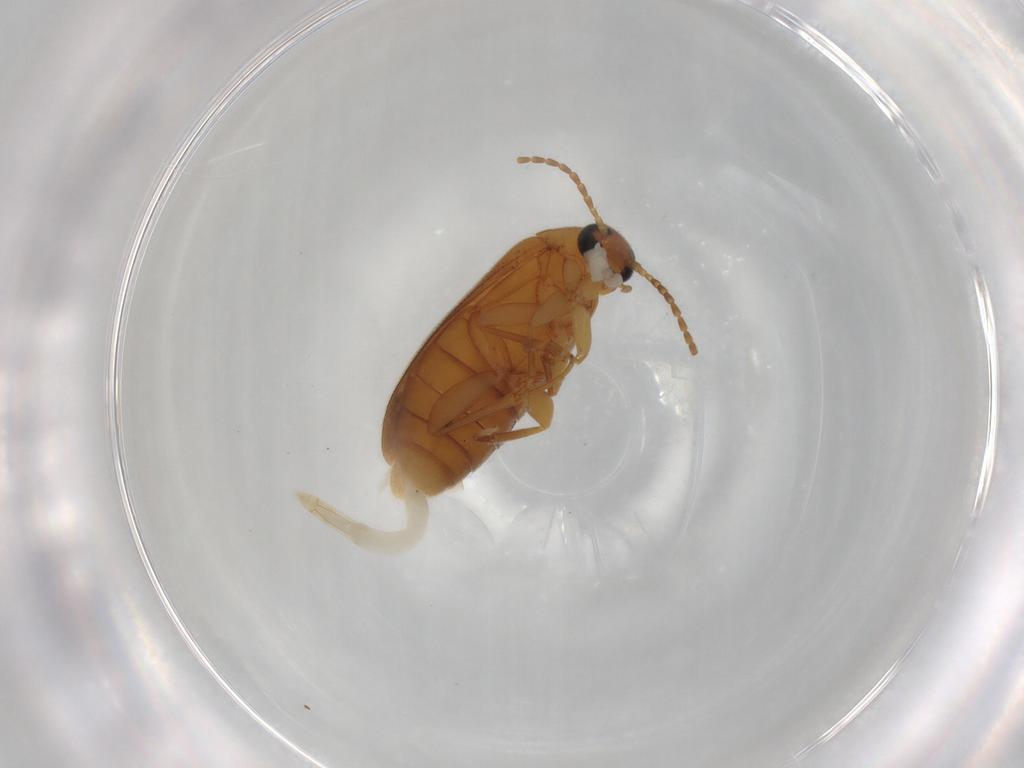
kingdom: Animalia
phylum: Arthropoda
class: Insecta
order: Coleoptera
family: Scraptiidae
